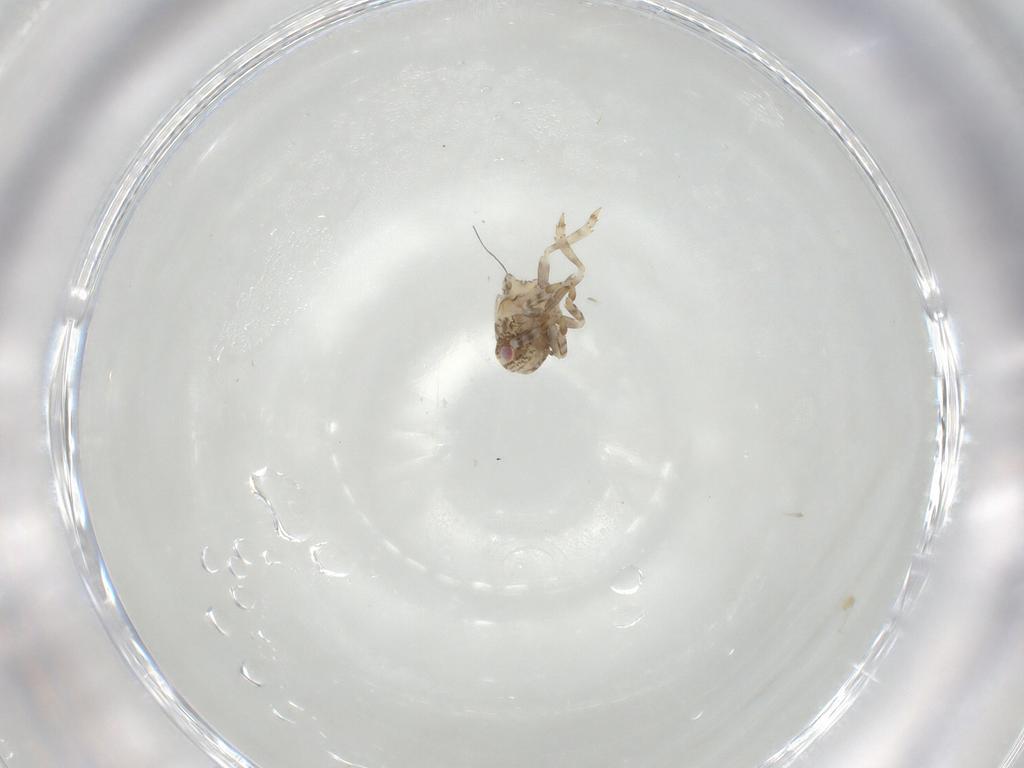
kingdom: Animalia
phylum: Arthropoda
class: Insecta
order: Hemiptera
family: Acanaloniidae
